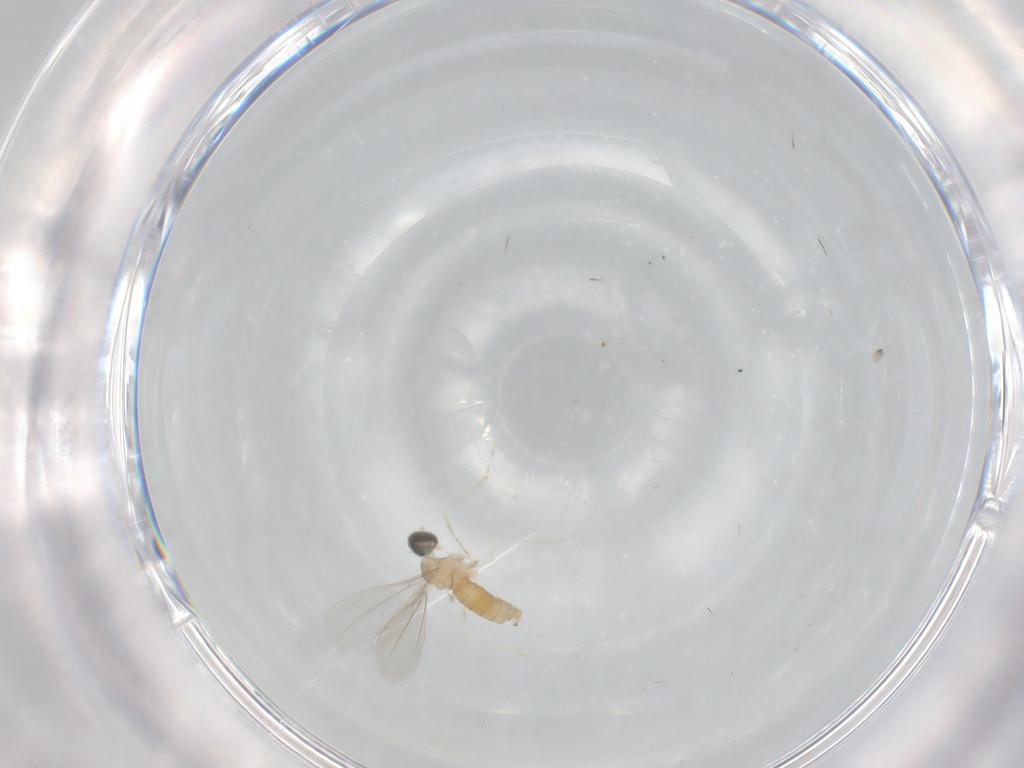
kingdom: Animalia
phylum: Arthropoda
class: Insecta
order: Diptera
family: Cecidomyiidae
